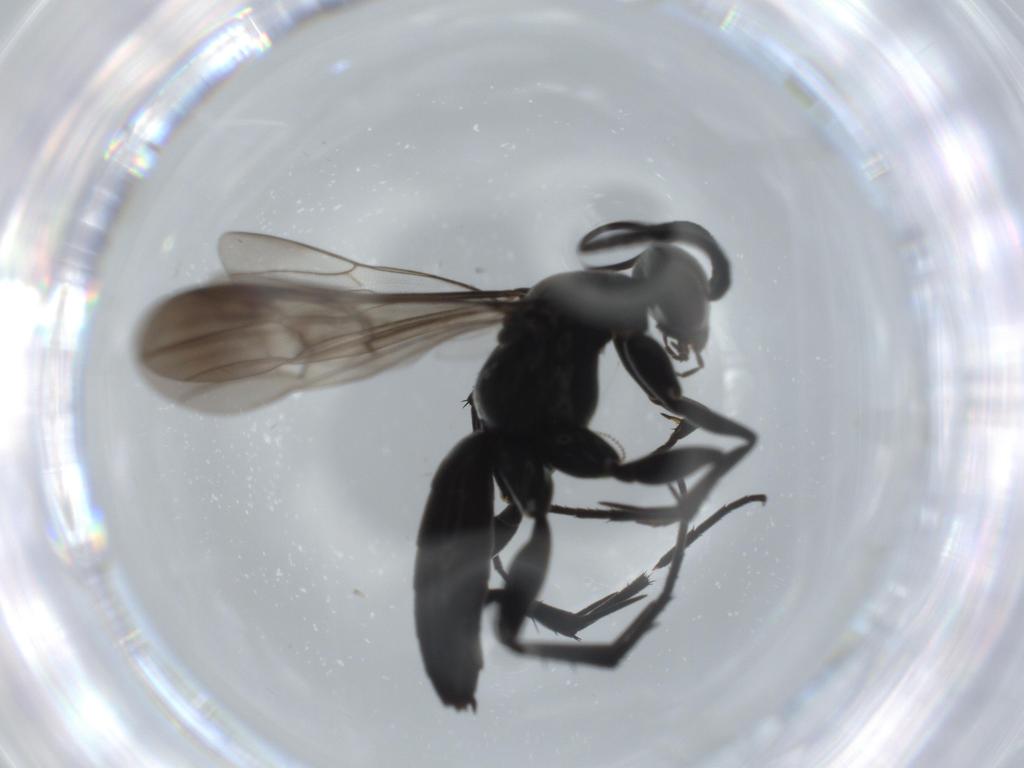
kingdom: Animalia
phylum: Arthropoda
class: Insecta
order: Hymenoptera
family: Pompilidae
